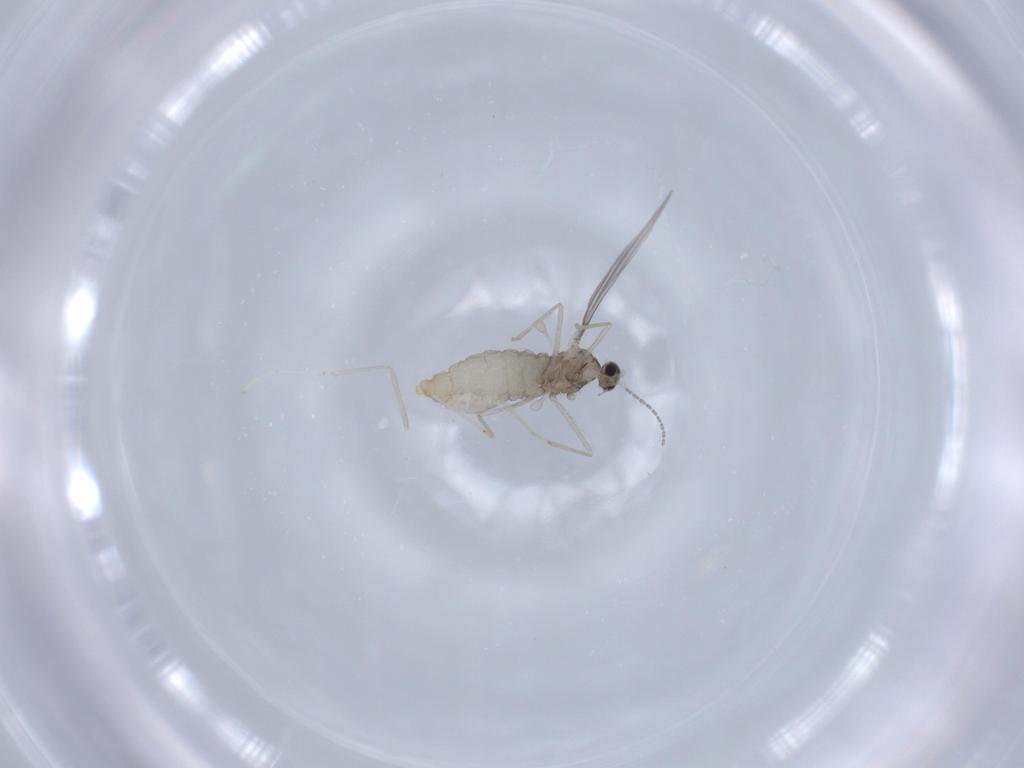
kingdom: Animalia
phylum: Arthropoda
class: Insecta
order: Diptera
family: Cecidomyiidae
